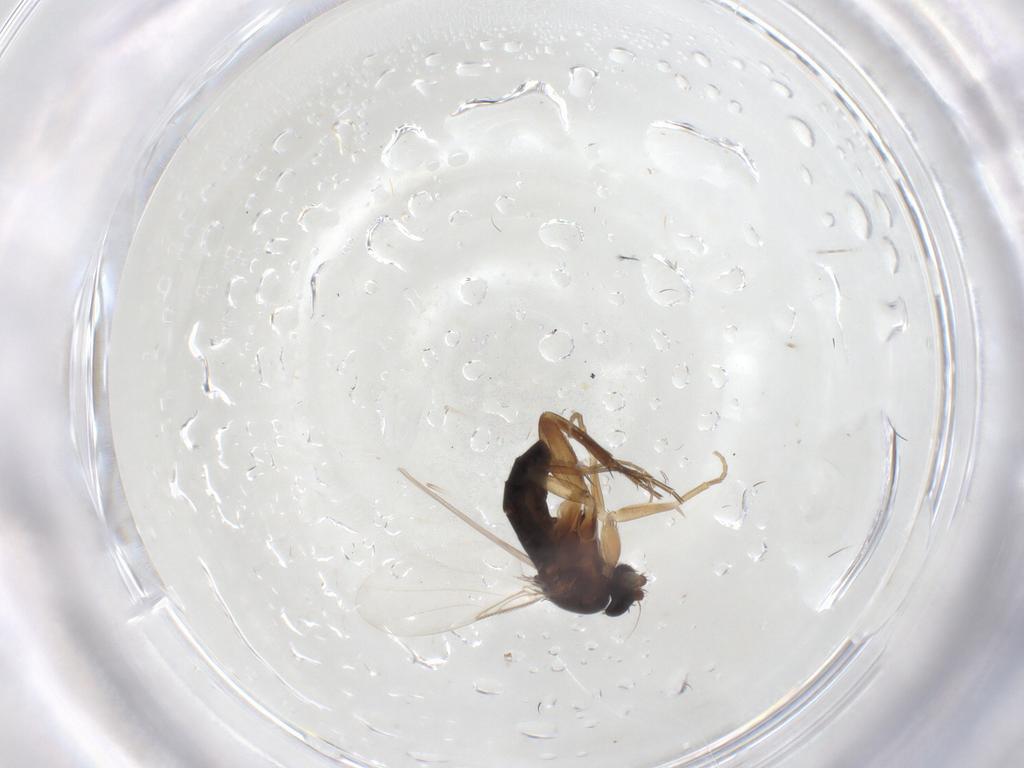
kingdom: Animalia
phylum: Arthropoda
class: Insecta
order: Diptera
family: Phoridae
